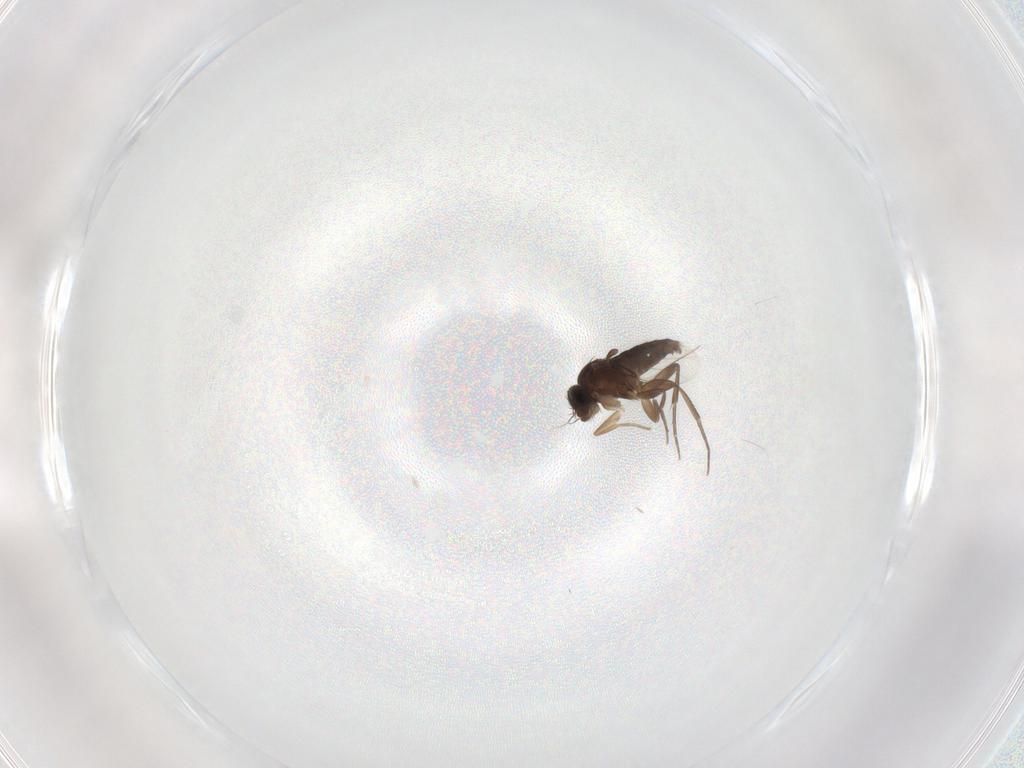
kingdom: Animalia
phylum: Arthropoda
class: Insecta
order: Diptera
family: Phoridae
